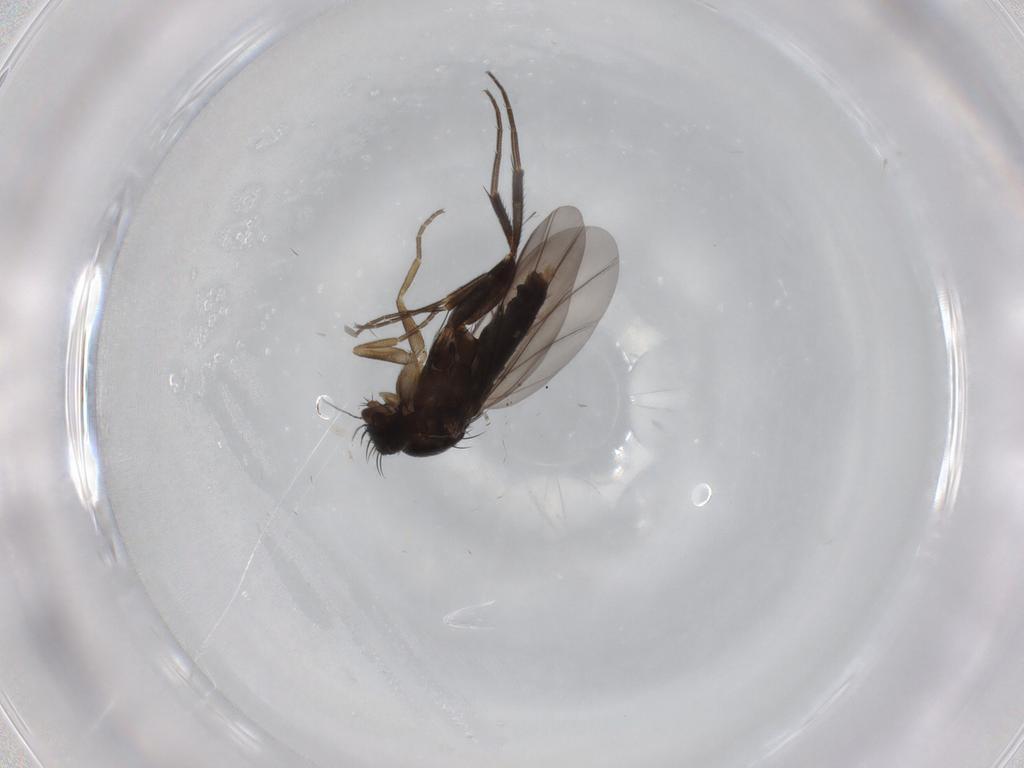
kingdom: Animalia
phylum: Arthropoda
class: Insecta
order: Diptera
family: Phoridae
